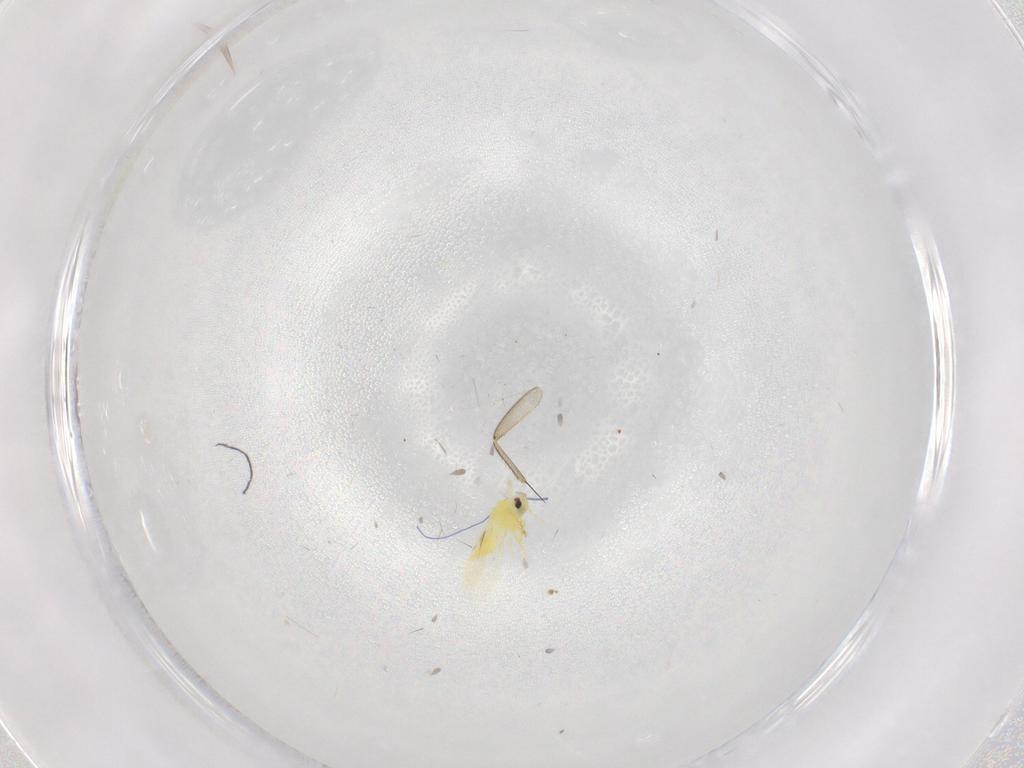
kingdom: Animalia
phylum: Arthropoda
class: Insecta
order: Hemiptera
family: Aleyrodidae
